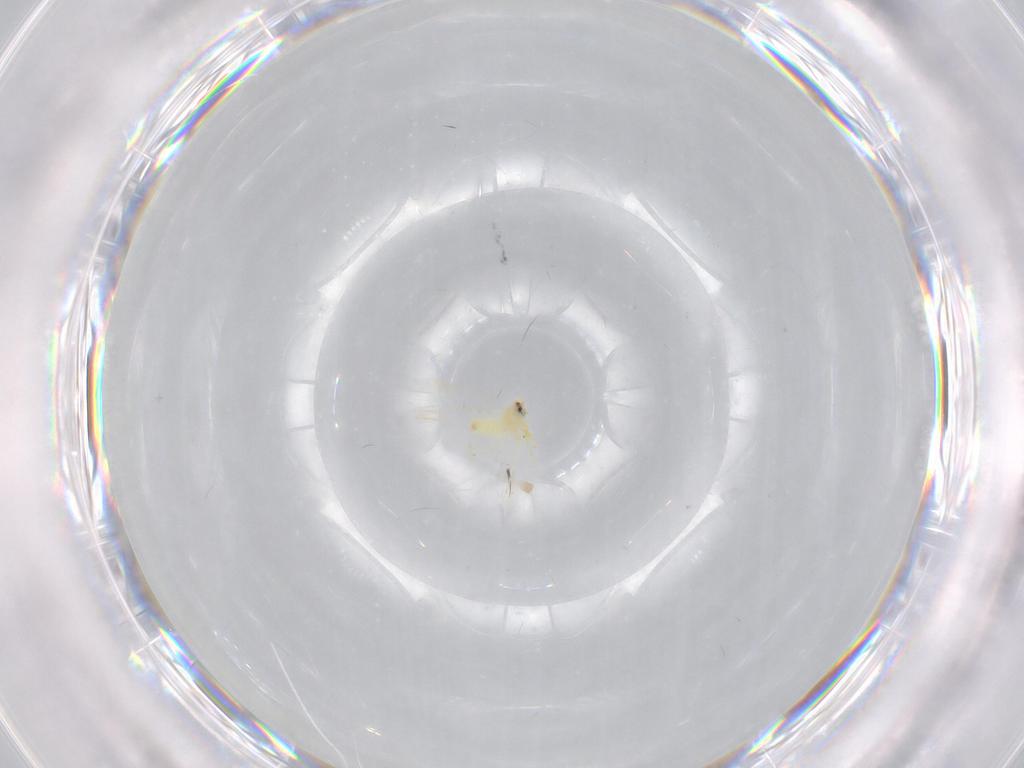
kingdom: Animalia
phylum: Arthropoda
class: Insecta
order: Hemiptera
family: Aleyrodidae
